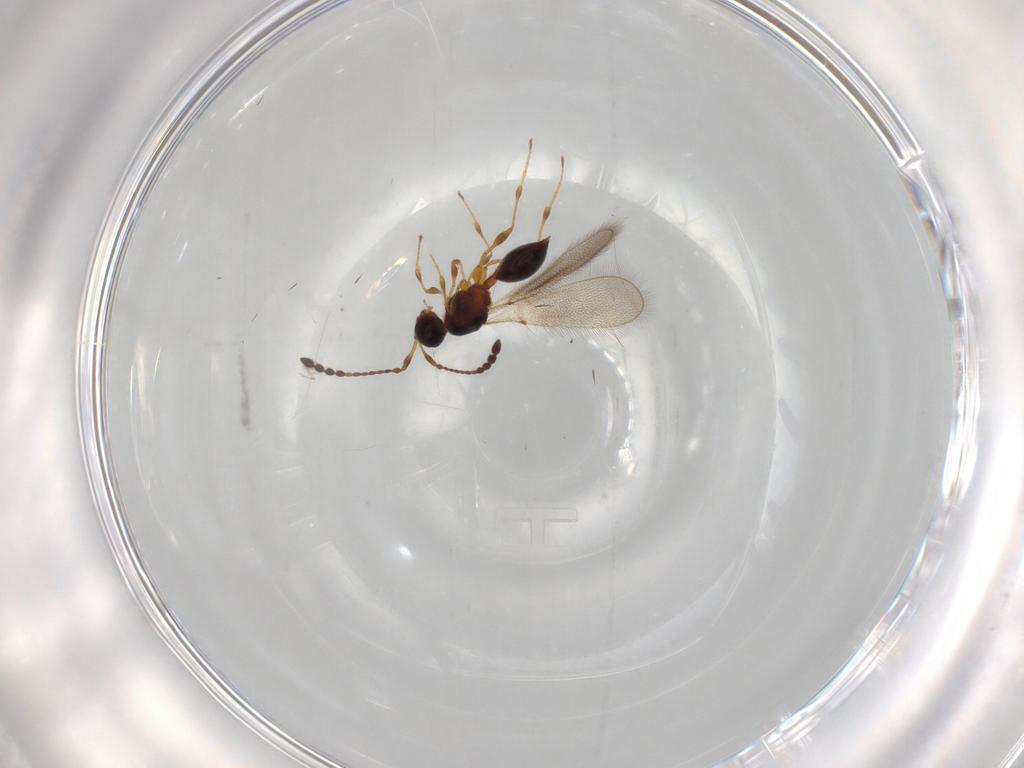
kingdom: Animalia
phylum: Arthropoda
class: Insecta
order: Hymenoptera
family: Diapriidae
